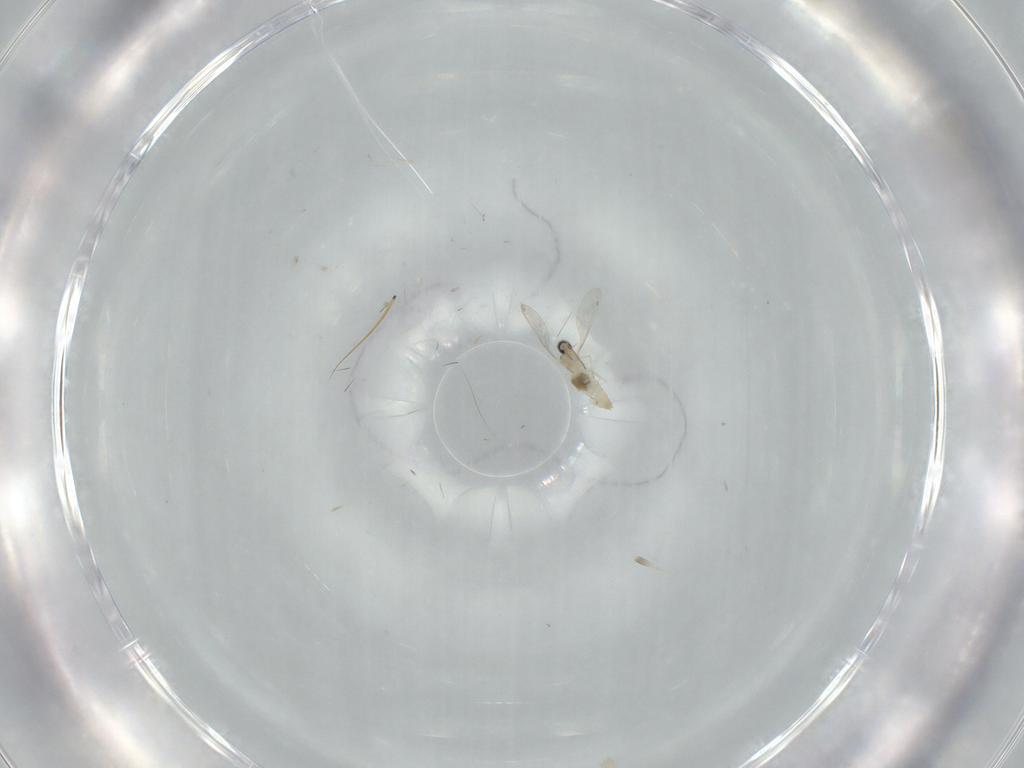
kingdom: Animalia
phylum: Arthropoda
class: Insecta
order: Diptera
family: Cecidomyiidae
